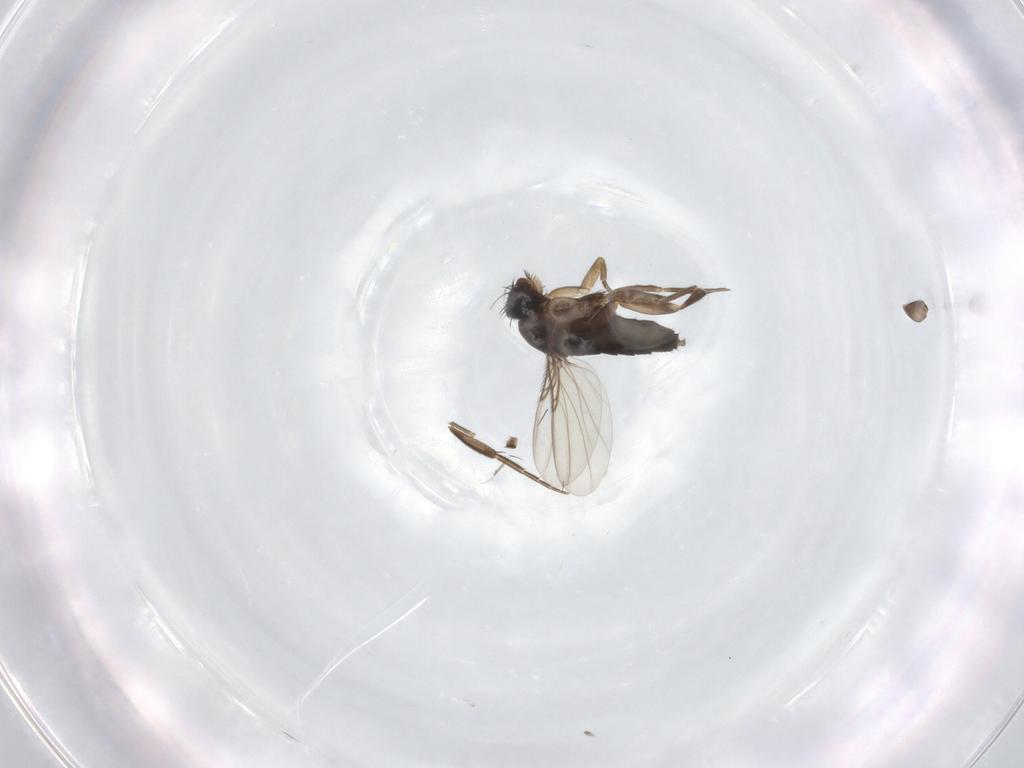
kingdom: Animalia
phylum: Arthropoda
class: Insecta
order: Diptera
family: Phoridae
